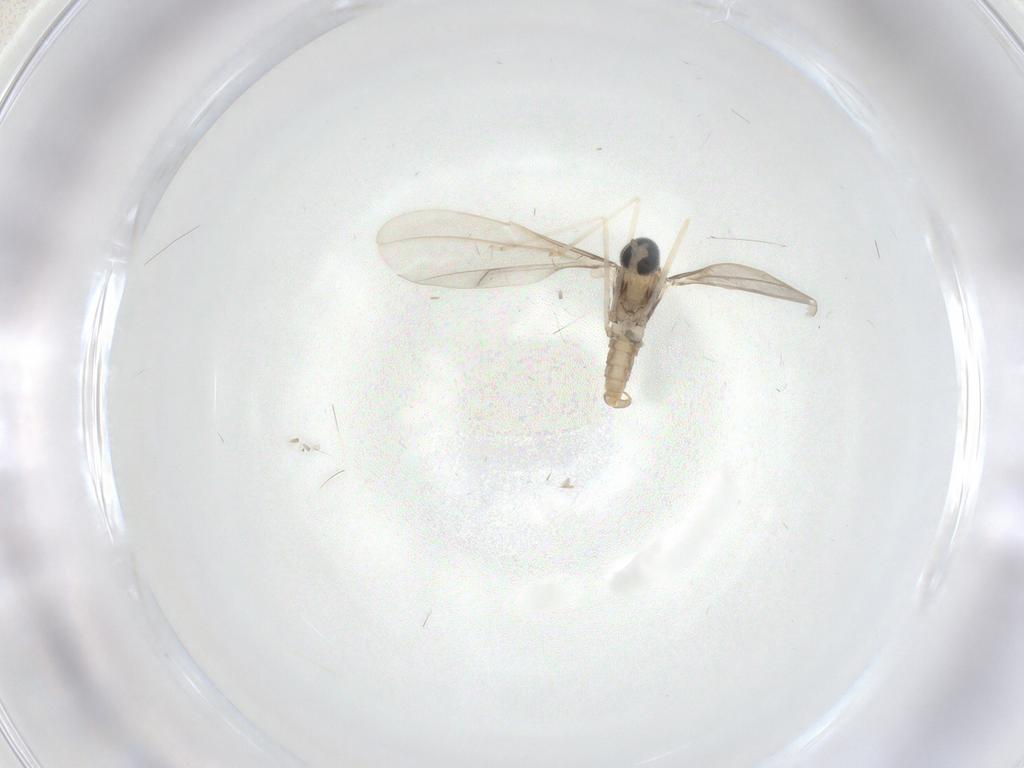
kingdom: Animalia
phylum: Arthropoda
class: Insecta
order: Diptera
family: Cecidomyiidae
